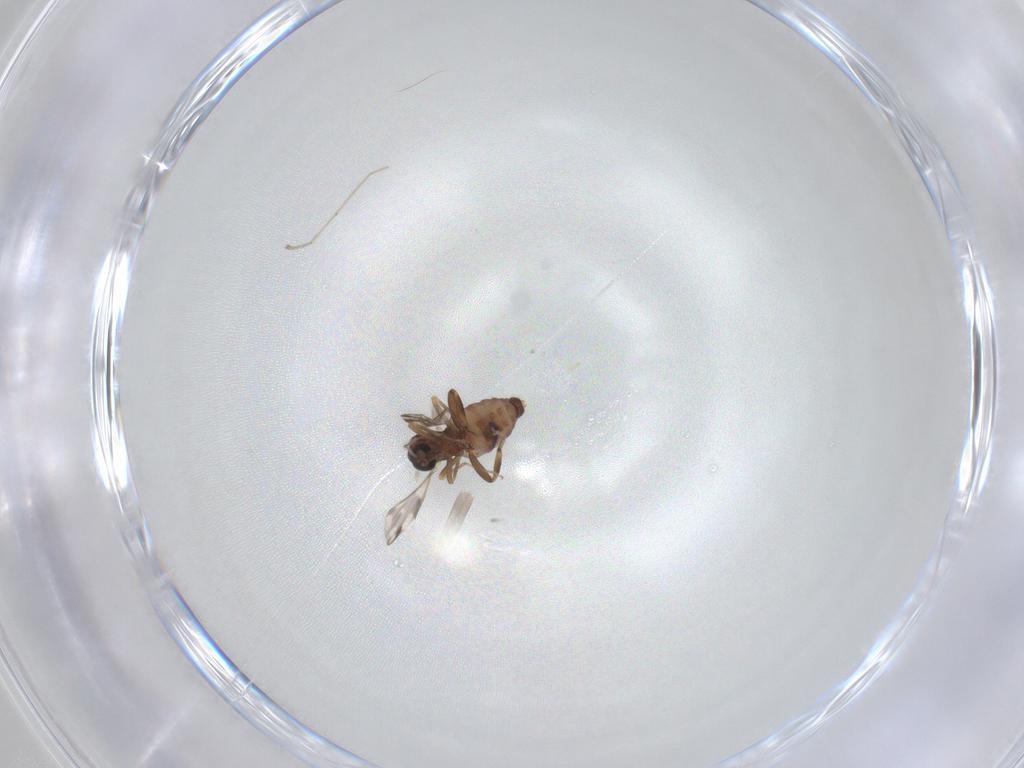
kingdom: Animalia
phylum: Arthropoda
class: Insecta
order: Diptera
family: Ceratopogonidae
